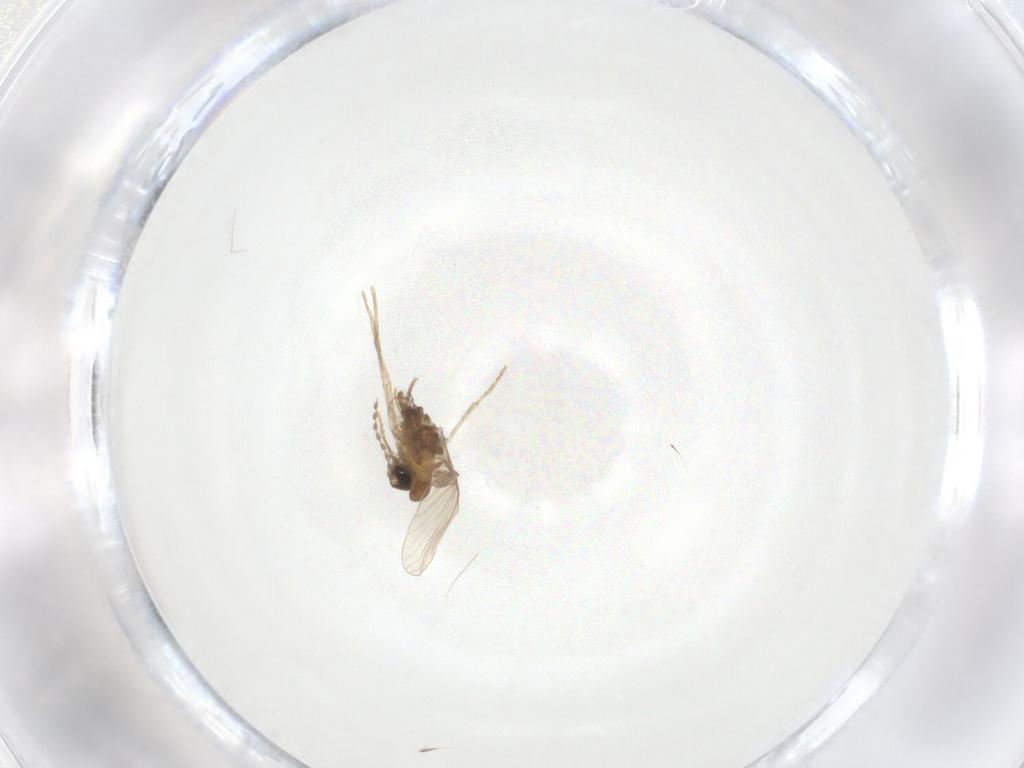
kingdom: Animalia
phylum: Arthropoda
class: Insecta
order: Diptera
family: Psychodidae
